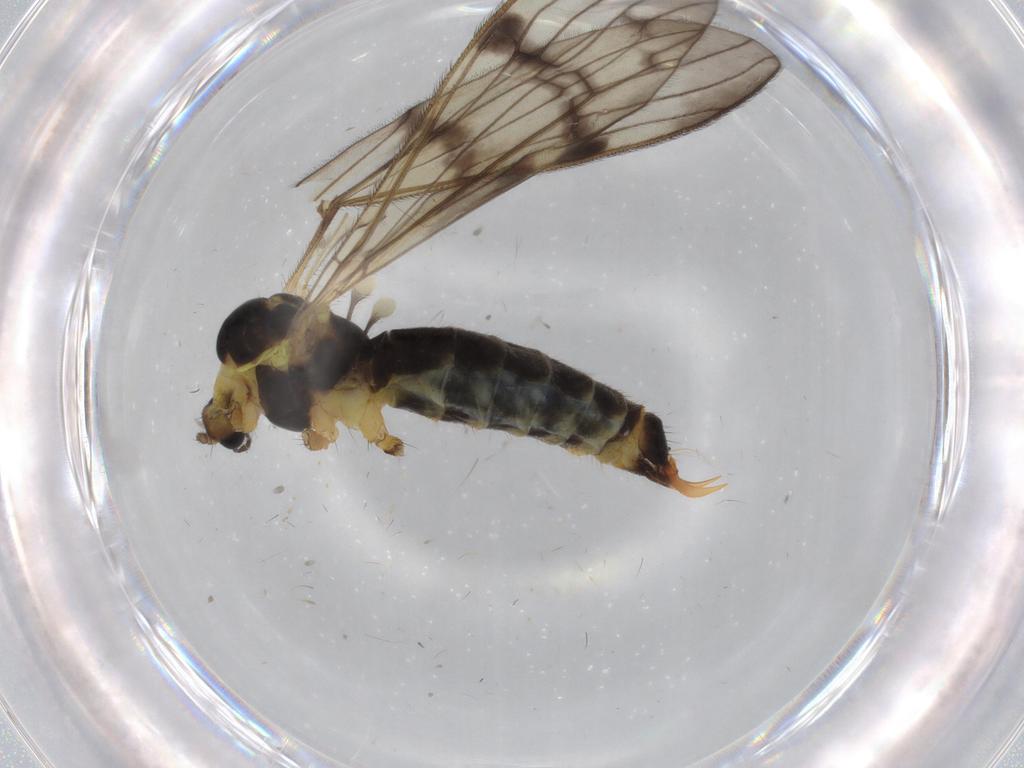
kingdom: Animalia
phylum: Arthropoda
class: Insecta
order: Diptera
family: Limoniidae
